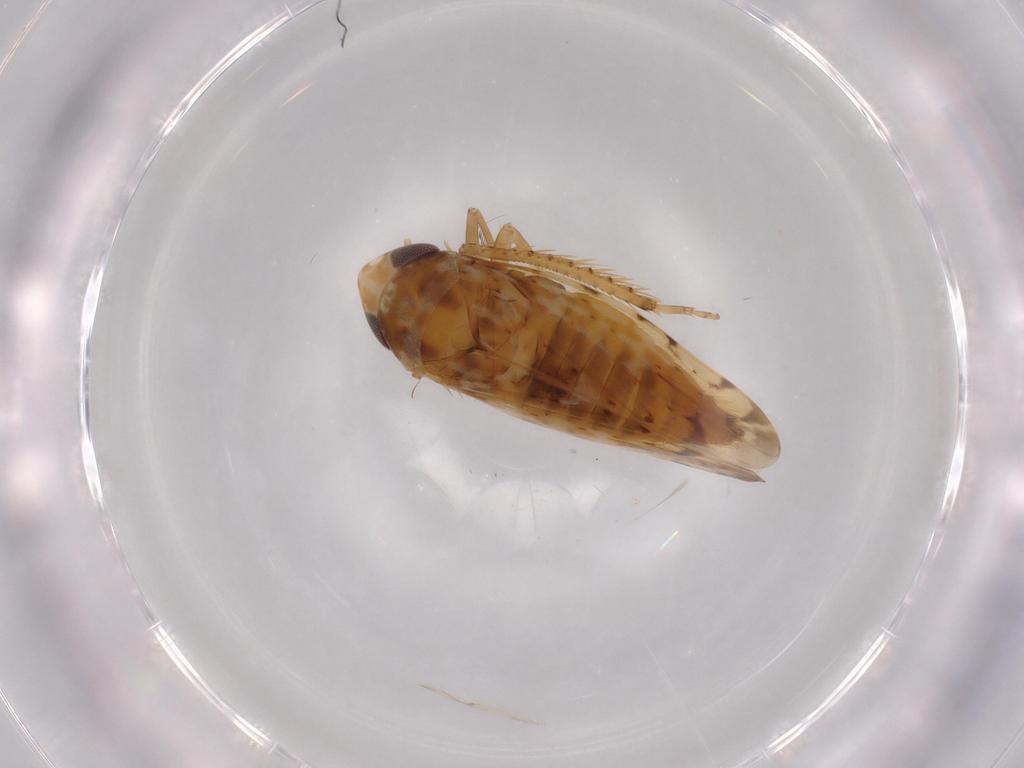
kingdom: Animalia
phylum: Arthropoda
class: Insecta
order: Hemiptera
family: Cicadellidae
